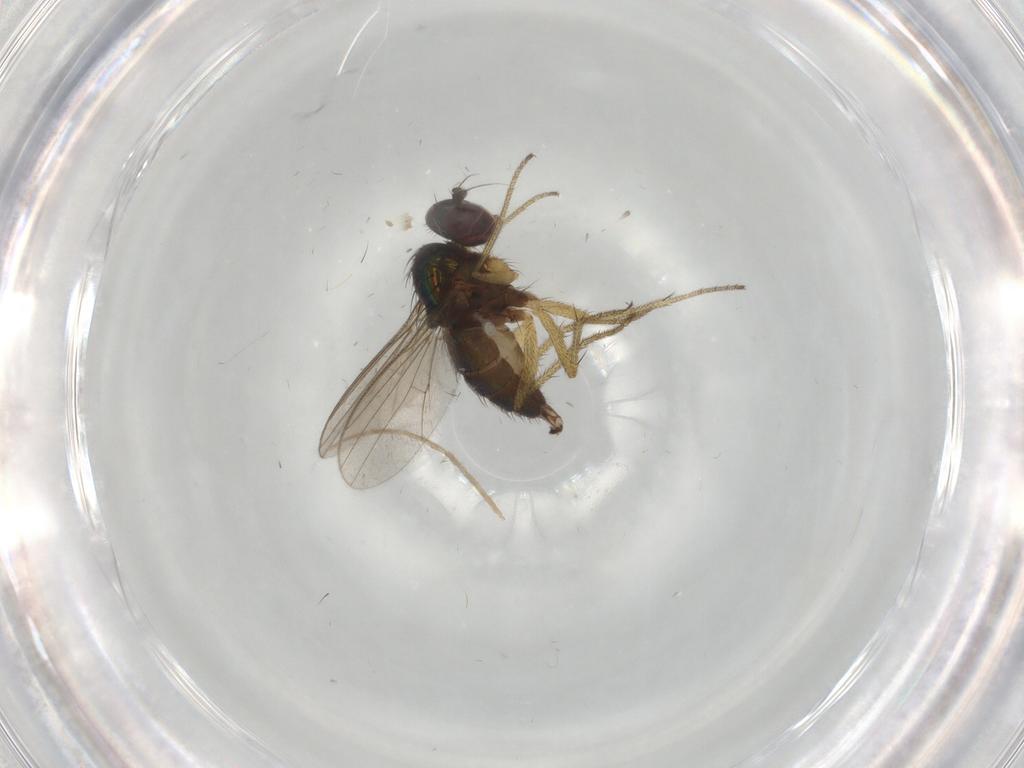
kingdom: Animalia
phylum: Arthropoda
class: Insecta
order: Diptera
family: Dolichopodidae
